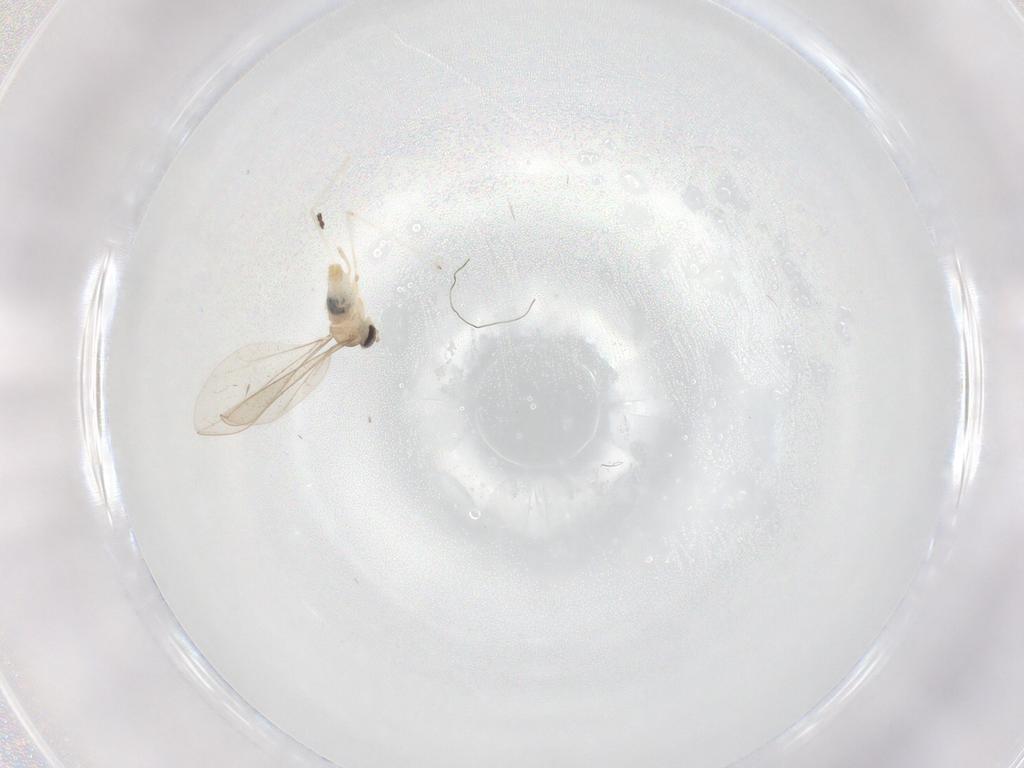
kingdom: Animalia
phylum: Arthropoda
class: Insecta
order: Diptera
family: Cecidomyiidae
